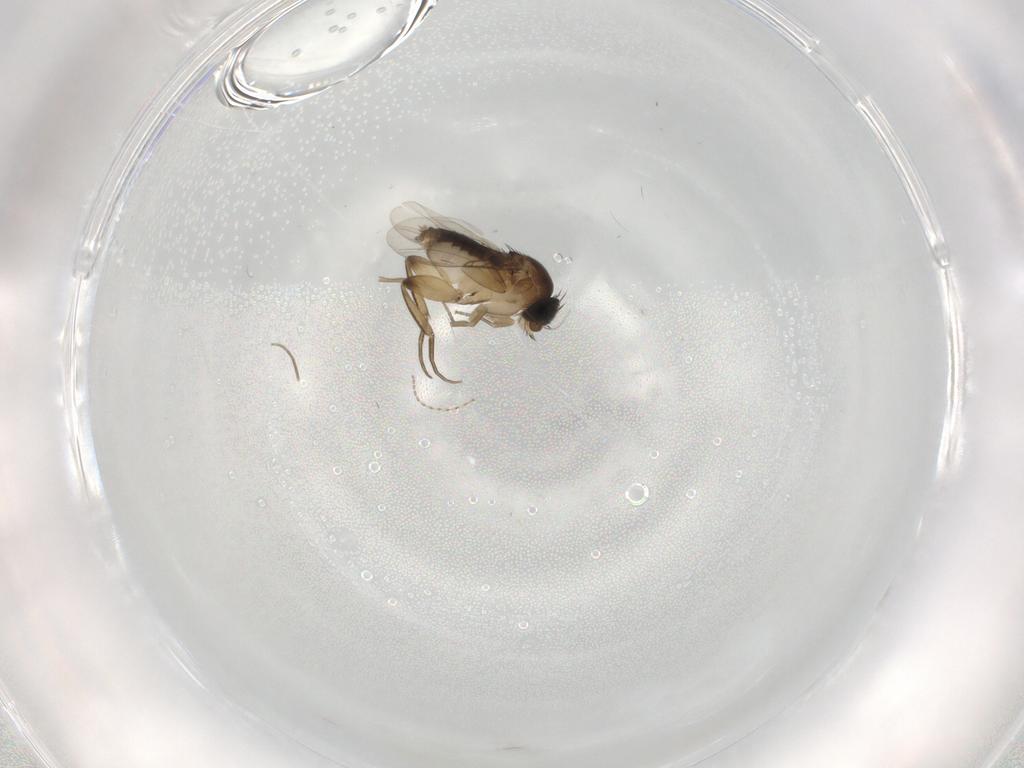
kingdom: Animalia
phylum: Arthropoda
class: Insecta
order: Diptera
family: Phoridae
